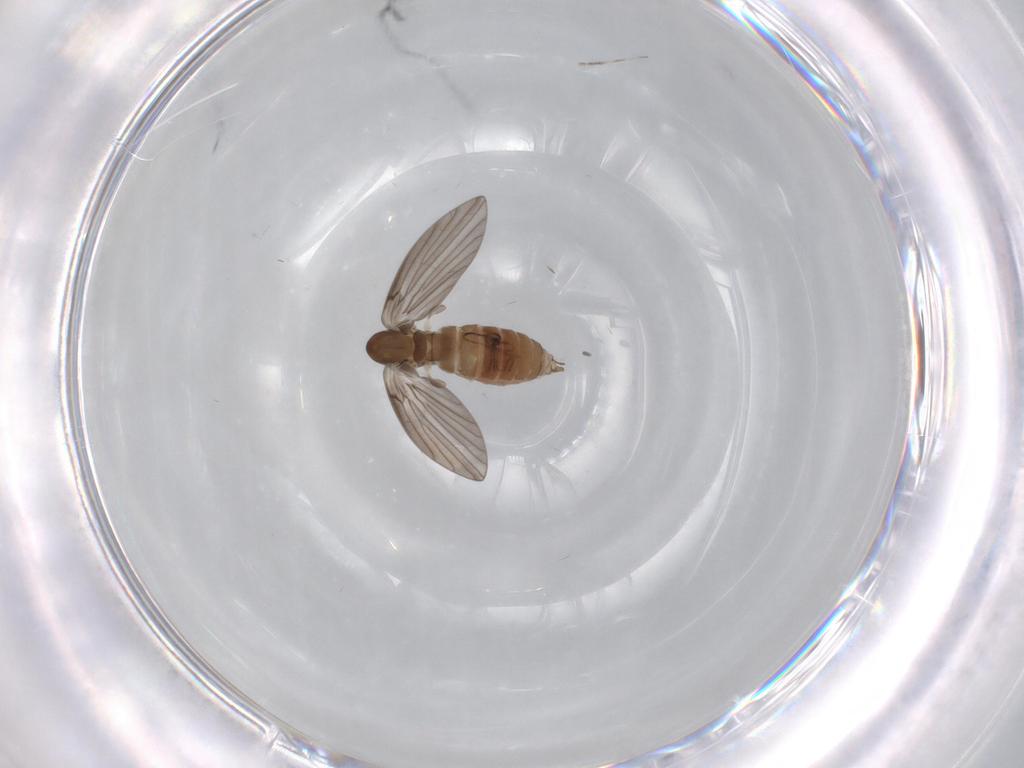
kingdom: Animalia
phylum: Arthropoda
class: Insecta
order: Diptera
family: Psychodidae
